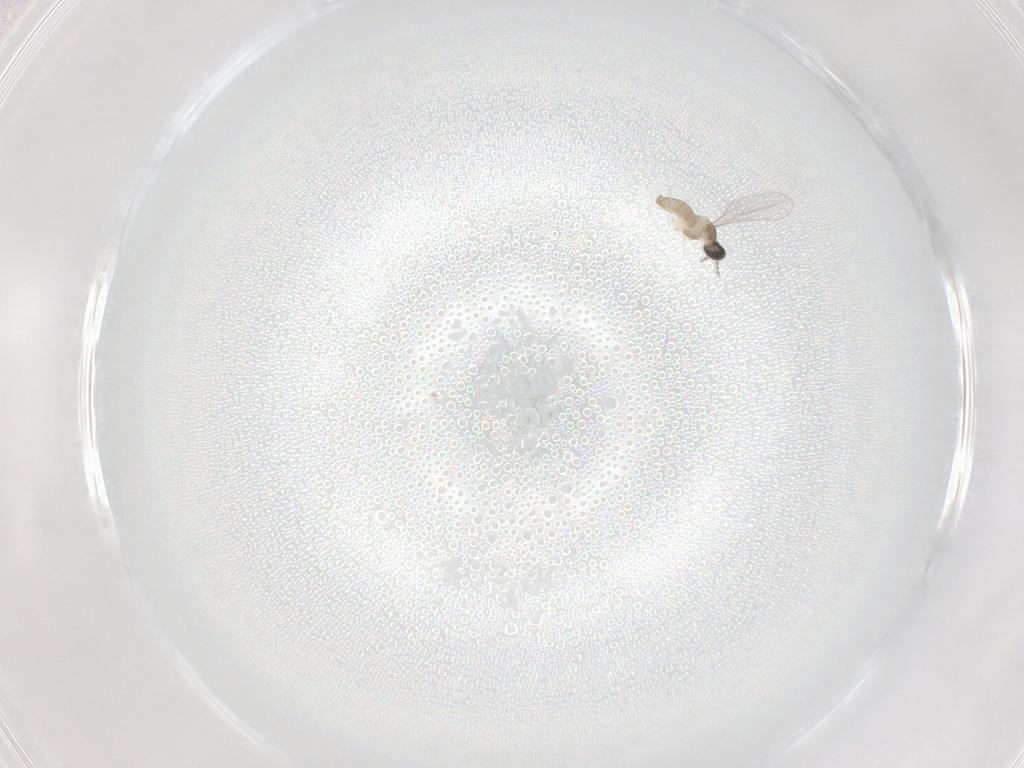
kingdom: Animalia
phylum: Arthropoda
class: Insecta
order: Diptera
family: Cecidomyiidae
